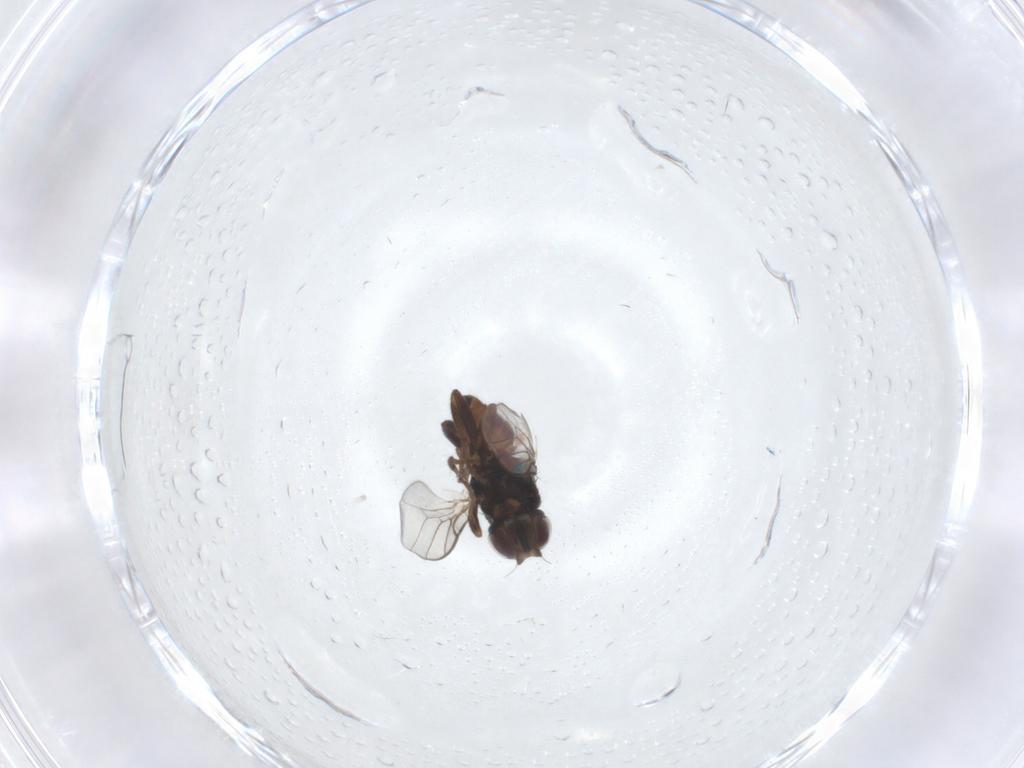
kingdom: Animalia
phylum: Arthropoda
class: Insecta
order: Diptera
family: Chloropidae
